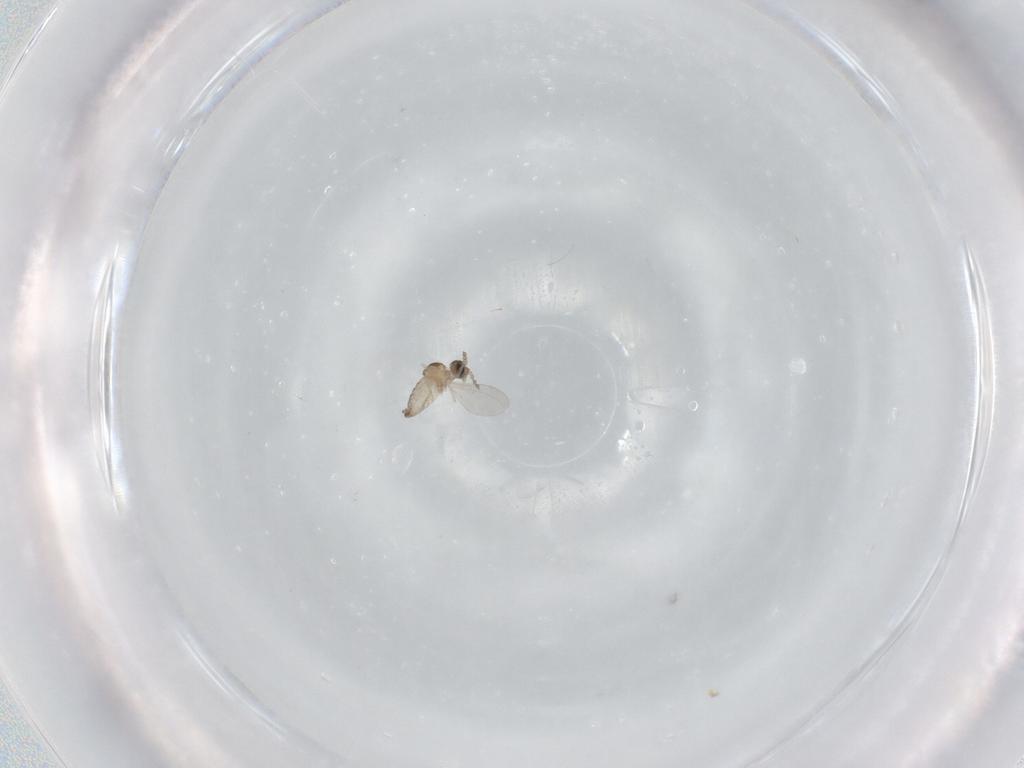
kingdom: Animalia
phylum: Arthropoda
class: Insecta
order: Diptera
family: Cecidomyiidae
